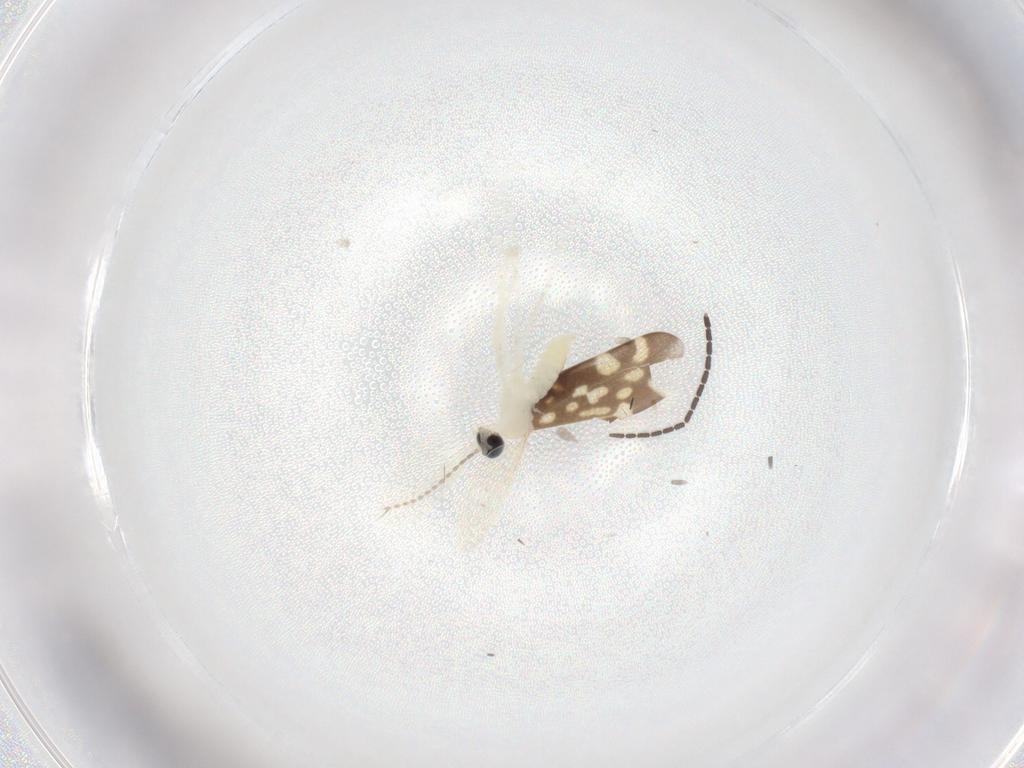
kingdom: Animalia
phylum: Arthropoda
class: Insecta
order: Diptera
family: Cecidomyiidae
